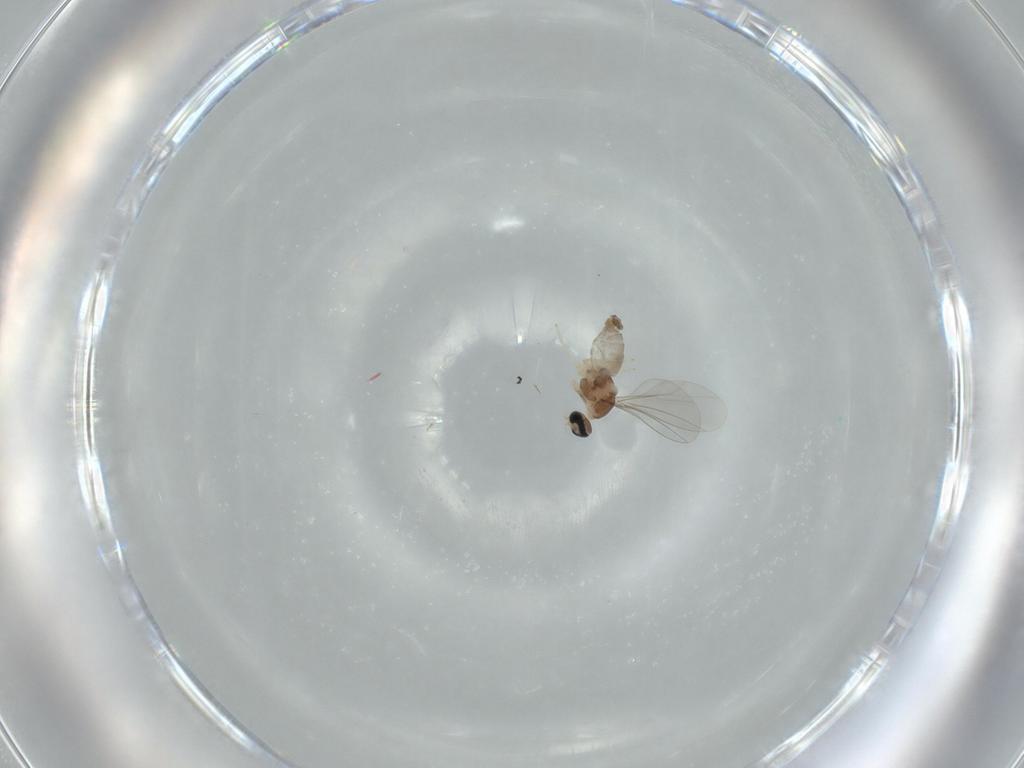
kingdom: Animalia
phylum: Arthropoda
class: Insecta
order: Diptera
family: Cecidomyiidae
